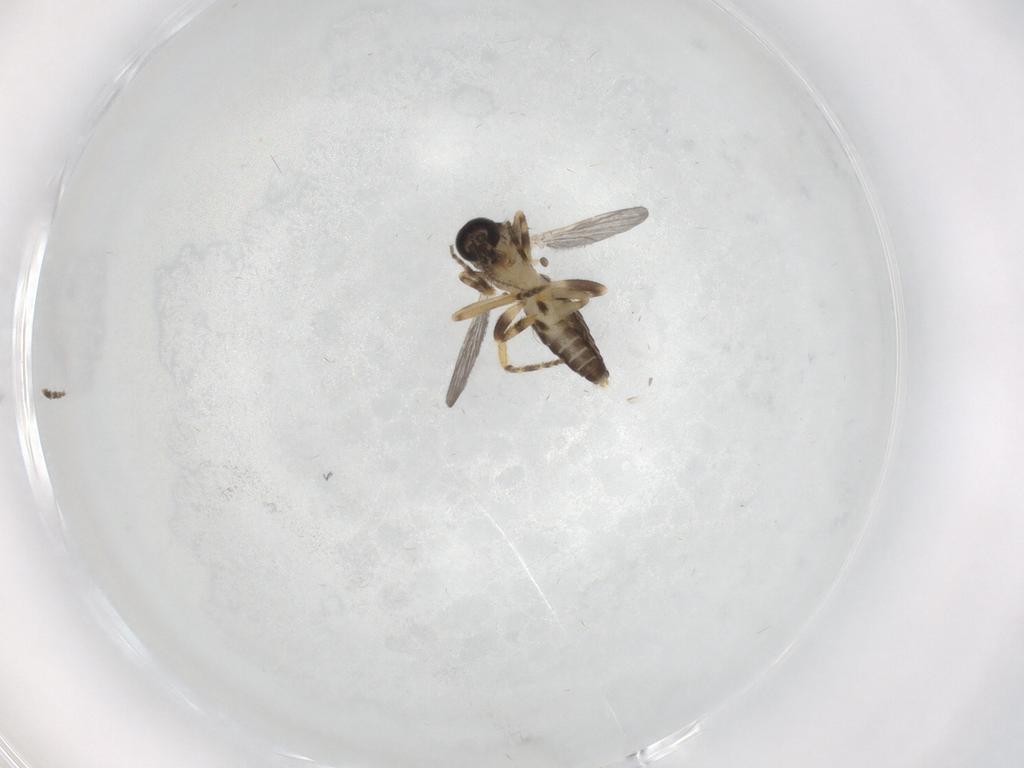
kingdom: Animalia
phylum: Arthropoda
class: Insecta
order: Diptera
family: Ceratopogonidae
